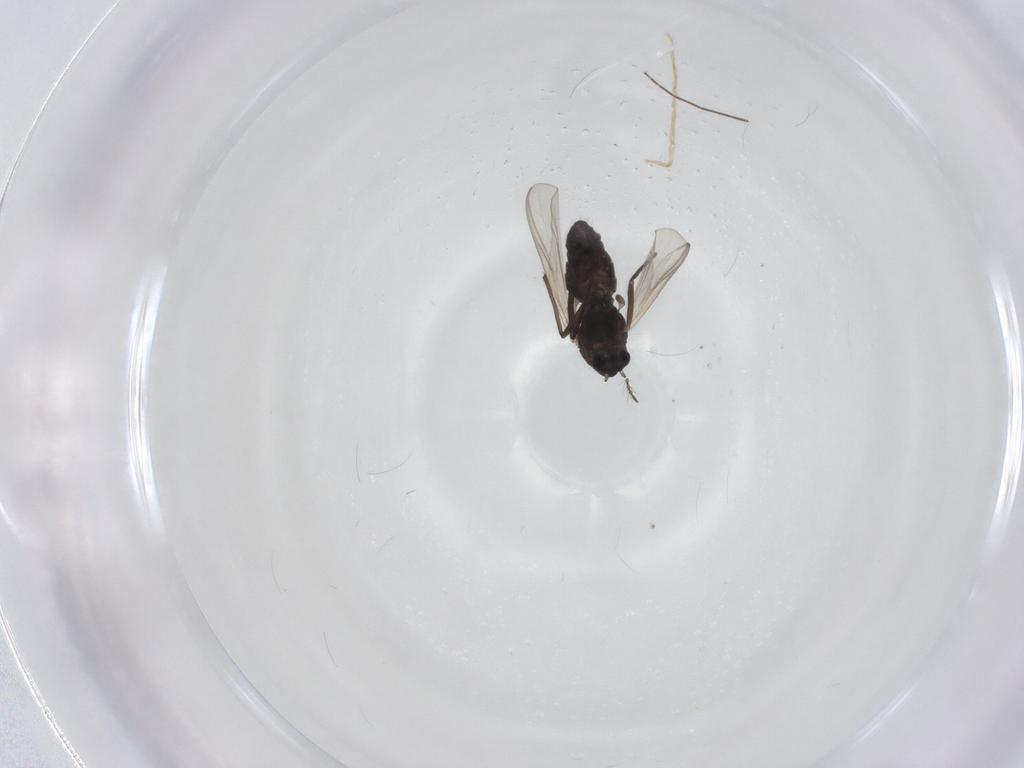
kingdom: Animalia
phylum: Arthropoda
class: Insecta
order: Diptera
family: Chironomidae
